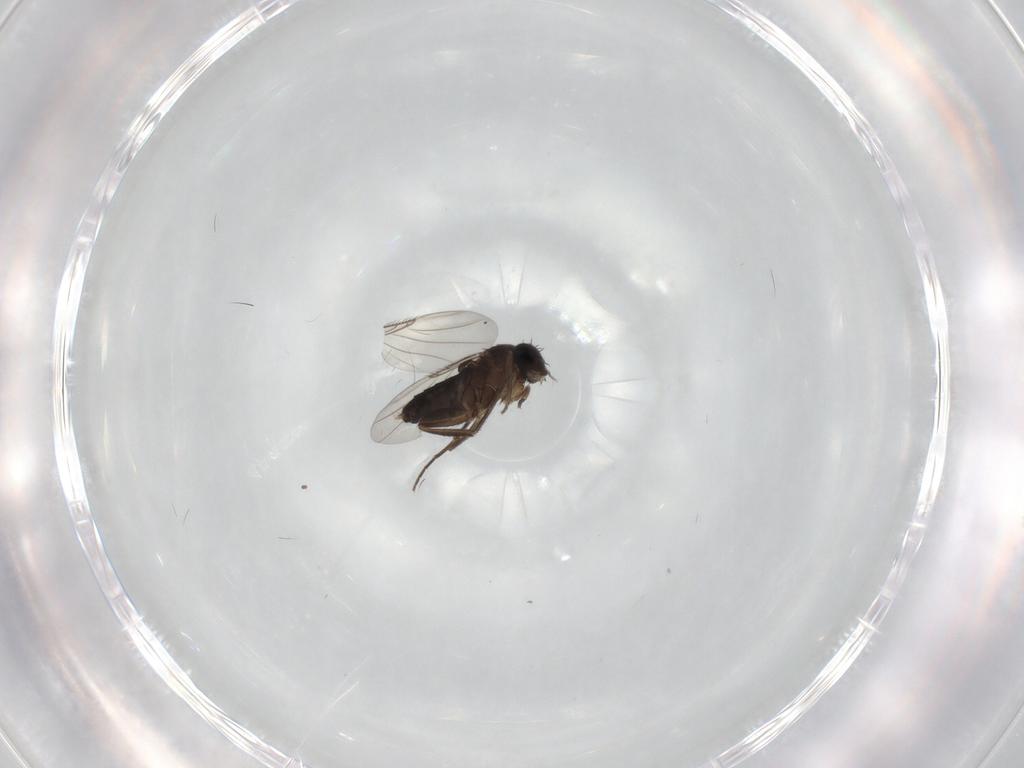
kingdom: Animalia
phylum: Arthropoda
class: Insecta
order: Diptera
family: Phoridae
